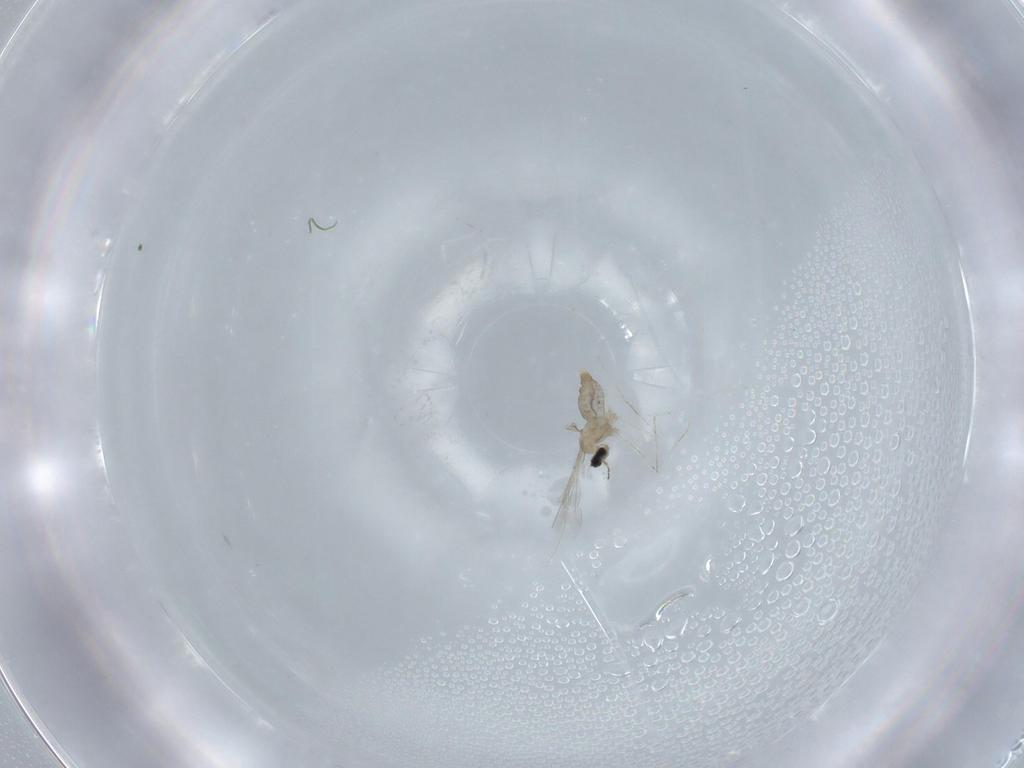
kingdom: Animalia
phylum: Arthropoda
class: Insecta
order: Diptera
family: Cecidomyiidae
